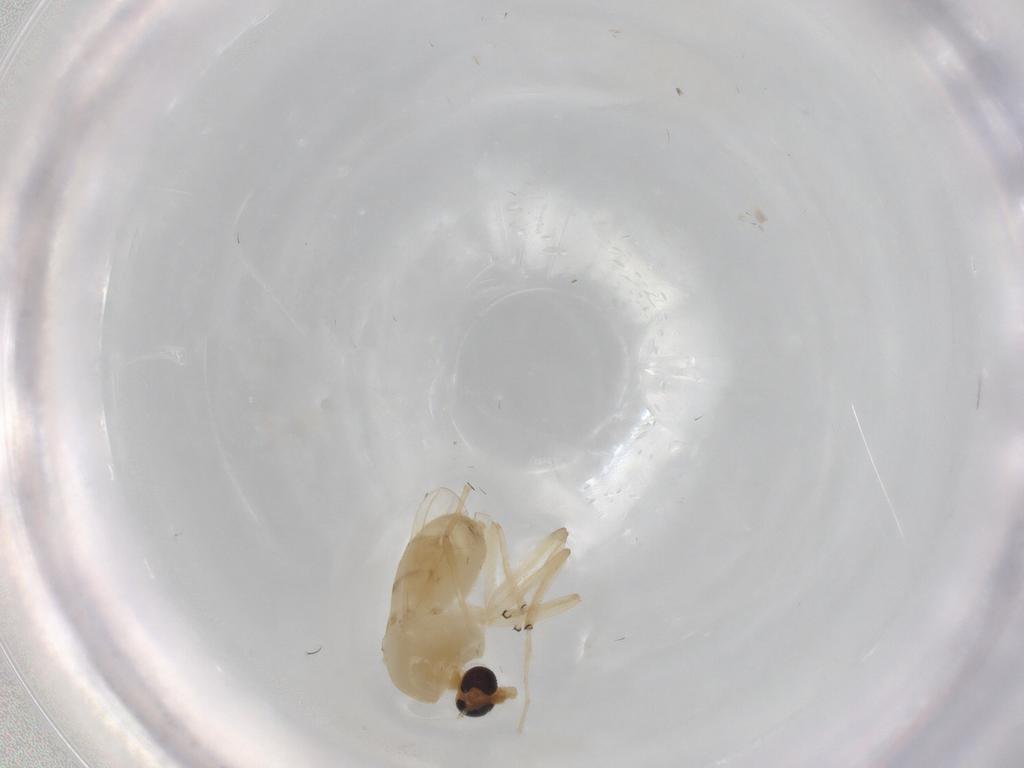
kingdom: Animalia
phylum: Arthropoda
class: Insecta
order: Diptera
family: Chironomidae
